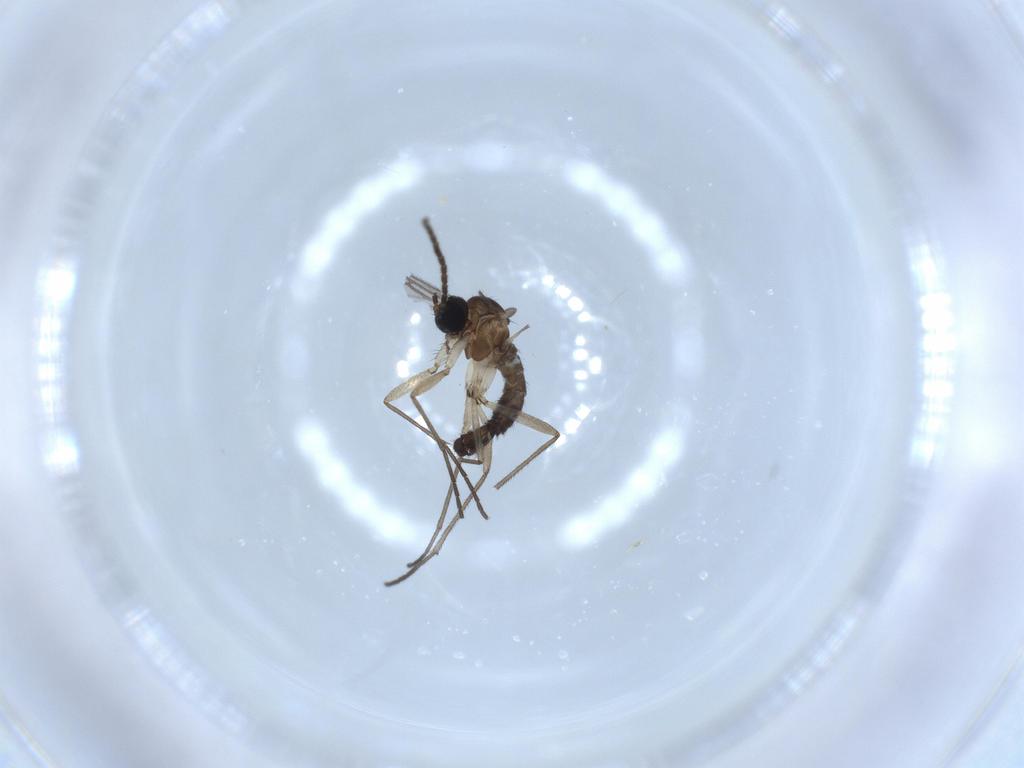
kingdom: Animalia
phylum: Arthropoda
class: Insecta
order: Diptera
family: Sciaridae
